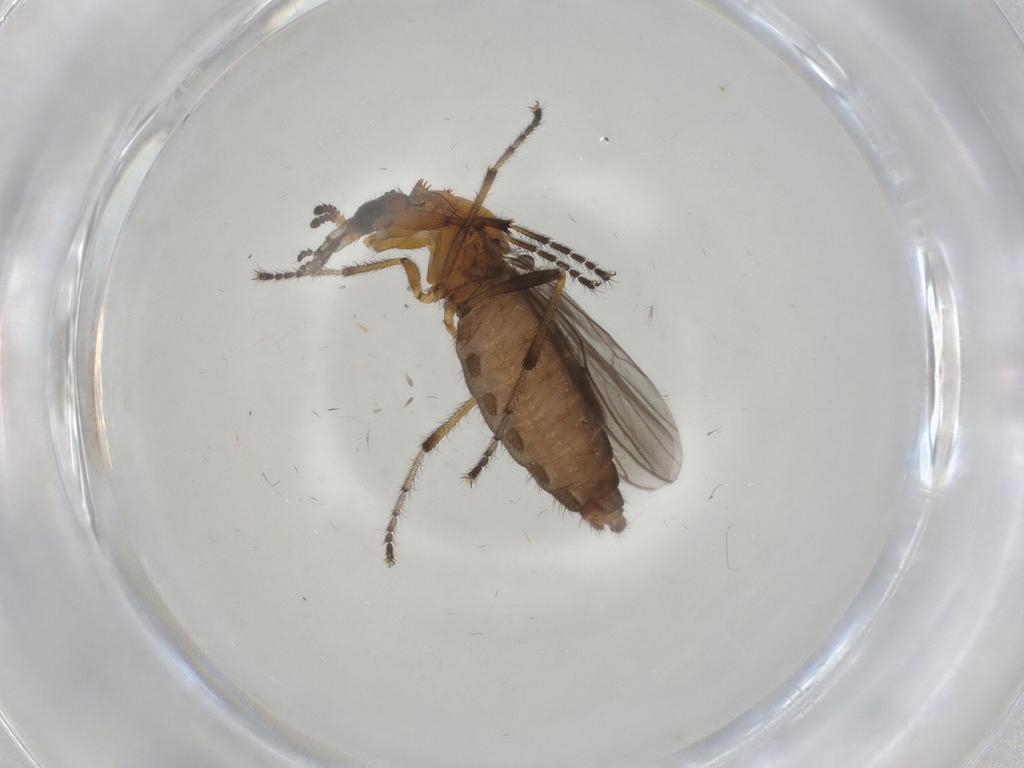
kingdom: Animalia
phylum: Arthropoda
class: Insecta
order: Diptera
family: Bibionidae
